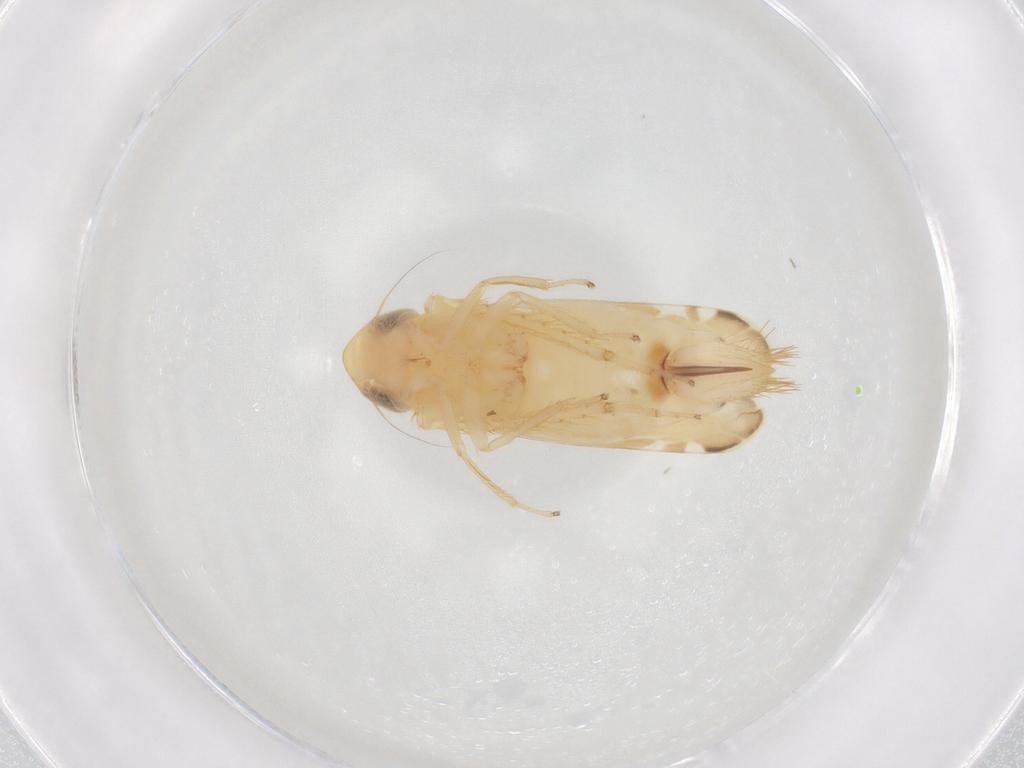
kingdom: Animalia
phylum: Arthropoda
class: Insecta
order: Hemiptera
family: Cicadellidae
